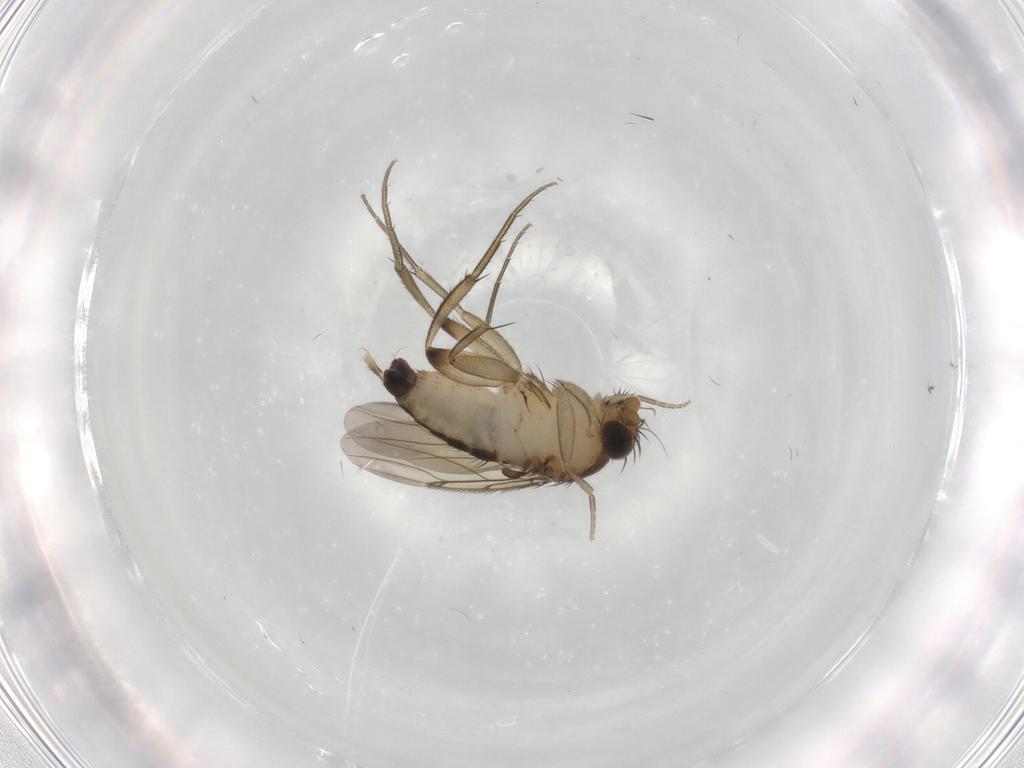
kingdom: Animalia
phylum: Arthropoda
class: Insecta
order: Diptera
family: Phoridae
